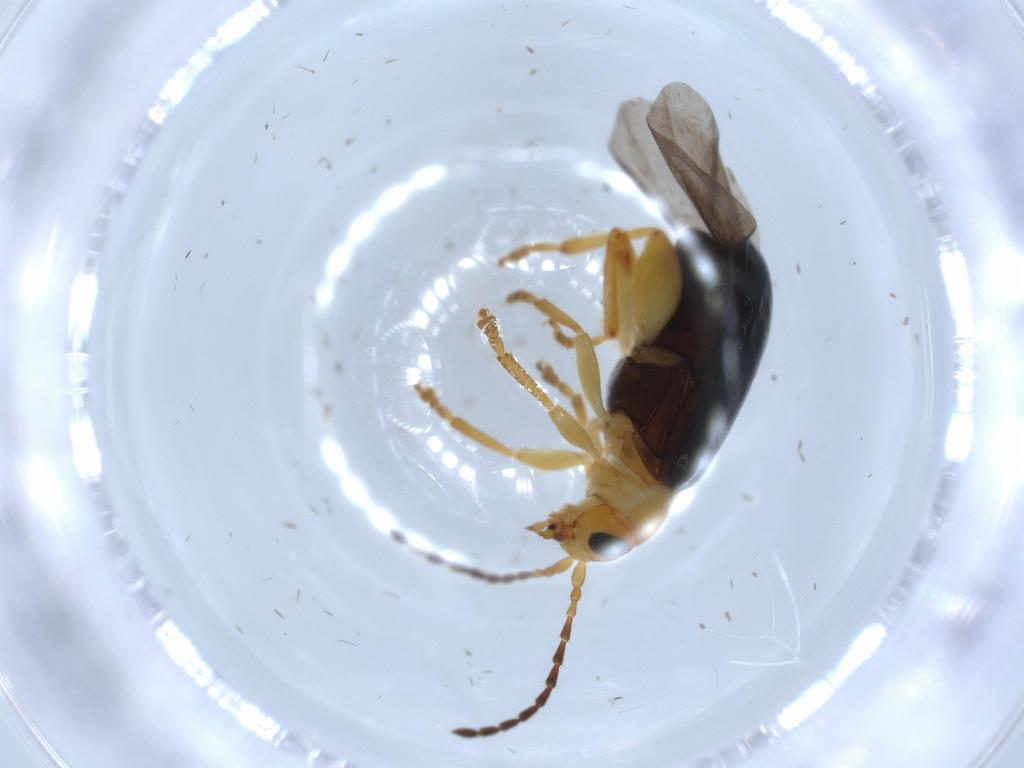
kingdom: Animalia
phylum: Arthropoda
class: Insecta
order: Coleoptera
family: Chrysomelidae
